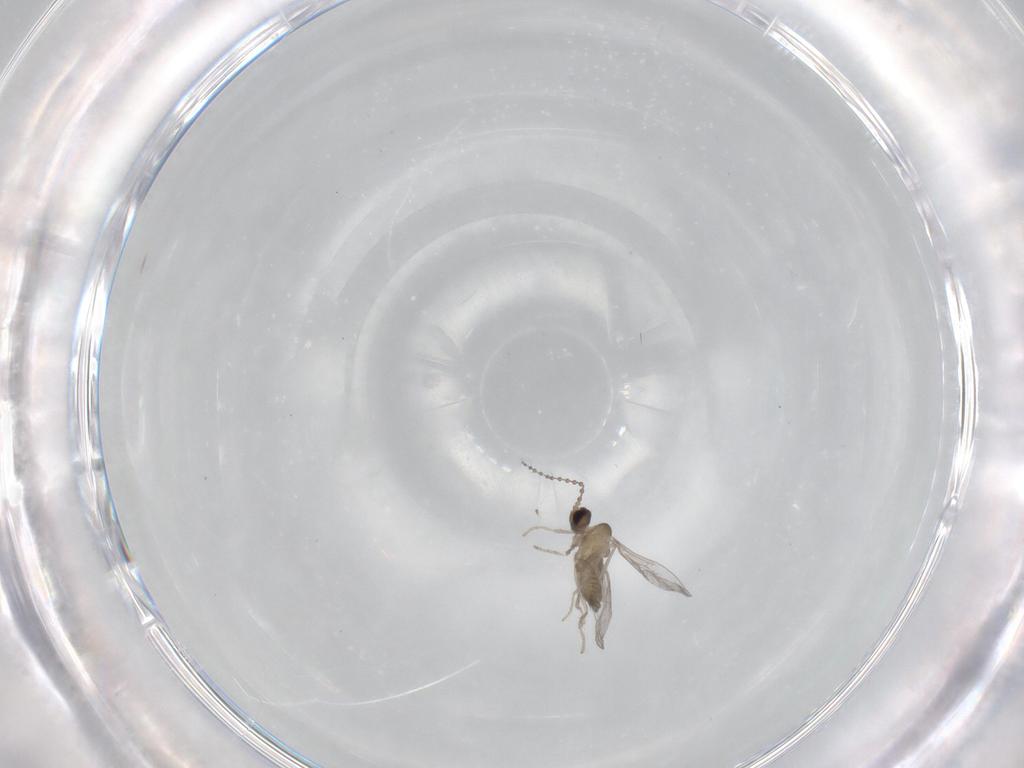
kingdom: Animalia
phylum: Arthropoda
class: Insecta
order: Diptera
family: Cecidomyiidae
